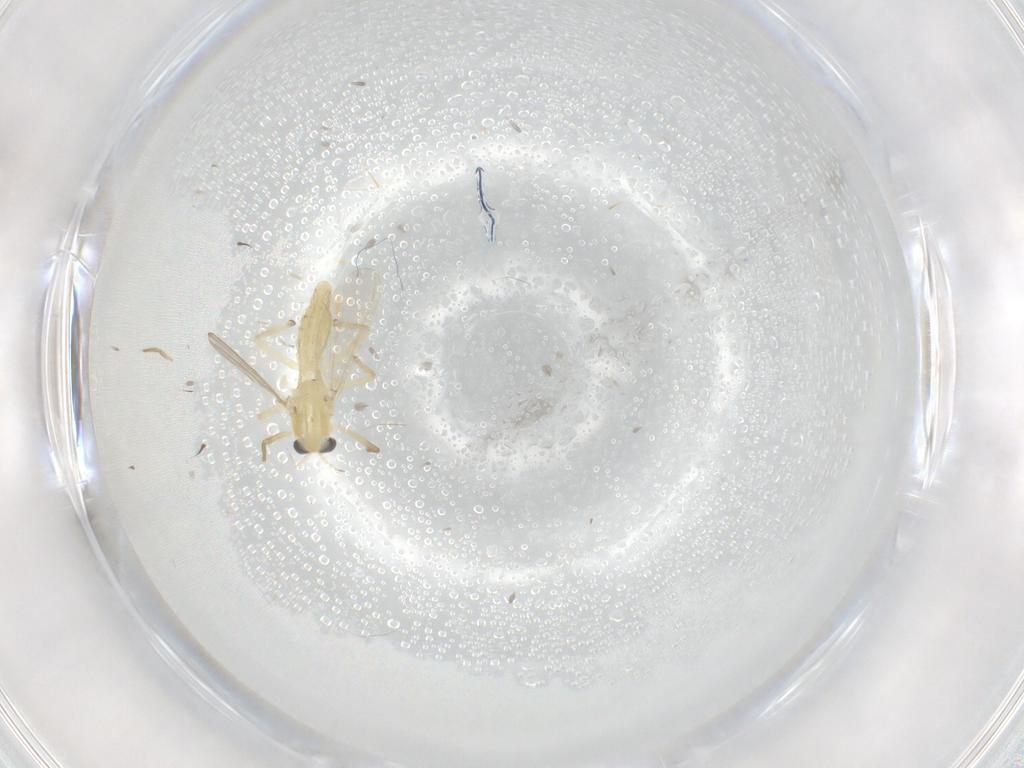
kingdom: Animalia
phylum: Arthropoda
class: Insecta
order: Diptera
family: Chironomidae
